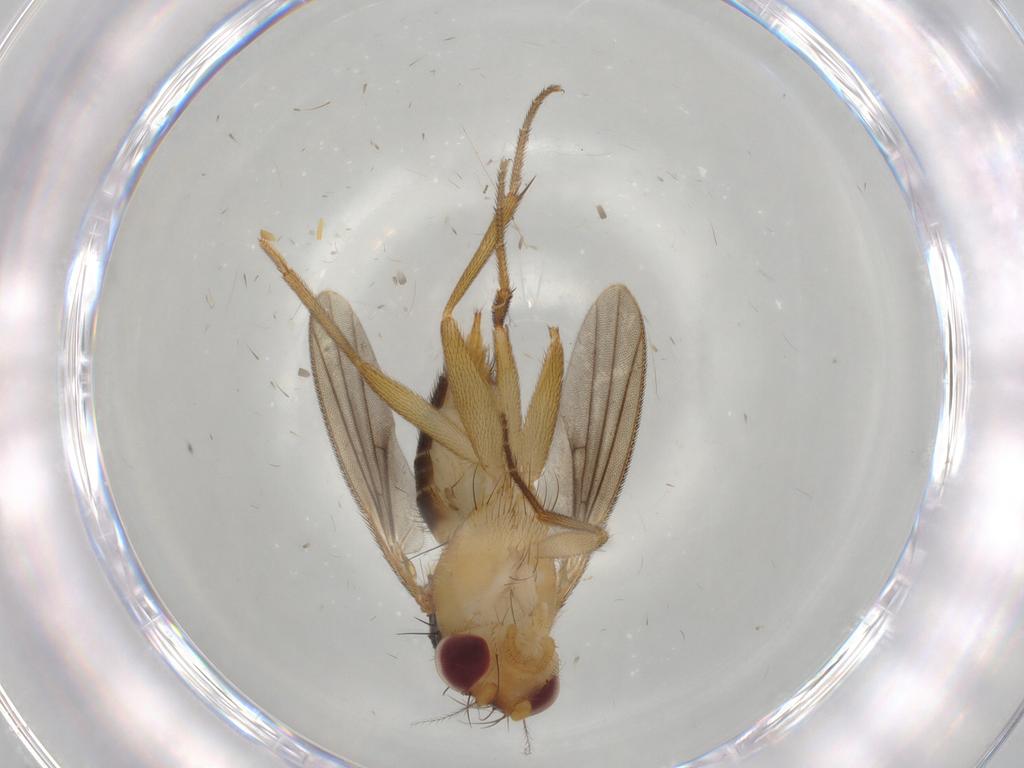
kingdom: Animalia
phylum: Arthropoda
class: Insecta
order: Diptera
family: Clusiidae
